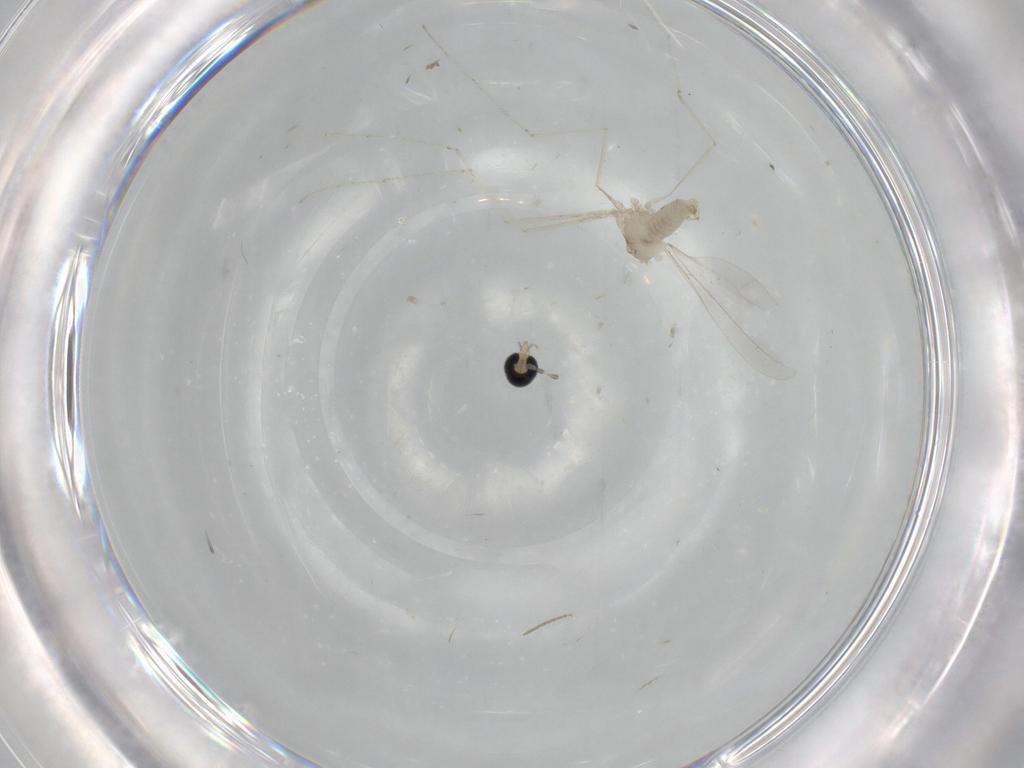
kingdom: Animalia
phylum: Arthropoda
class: Insecta
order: Diptera
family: Cecidomyiidae
